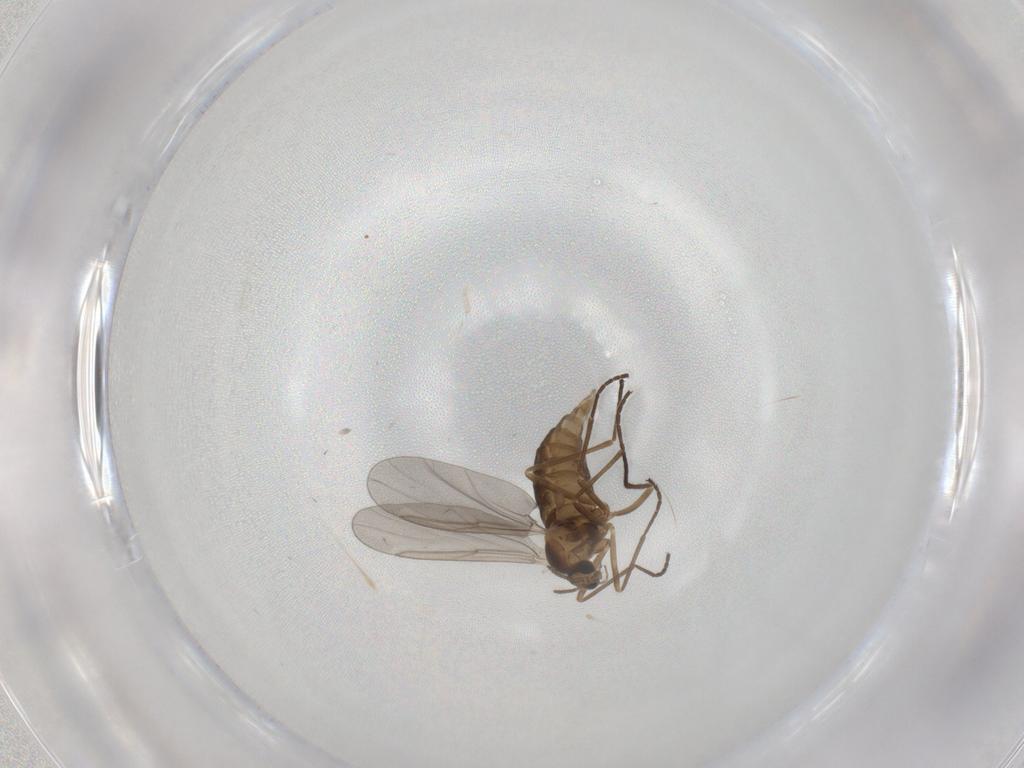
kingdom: Animalia
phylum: Arthropoda
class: Insecta
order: Diptera
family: Cecidomyiidae
